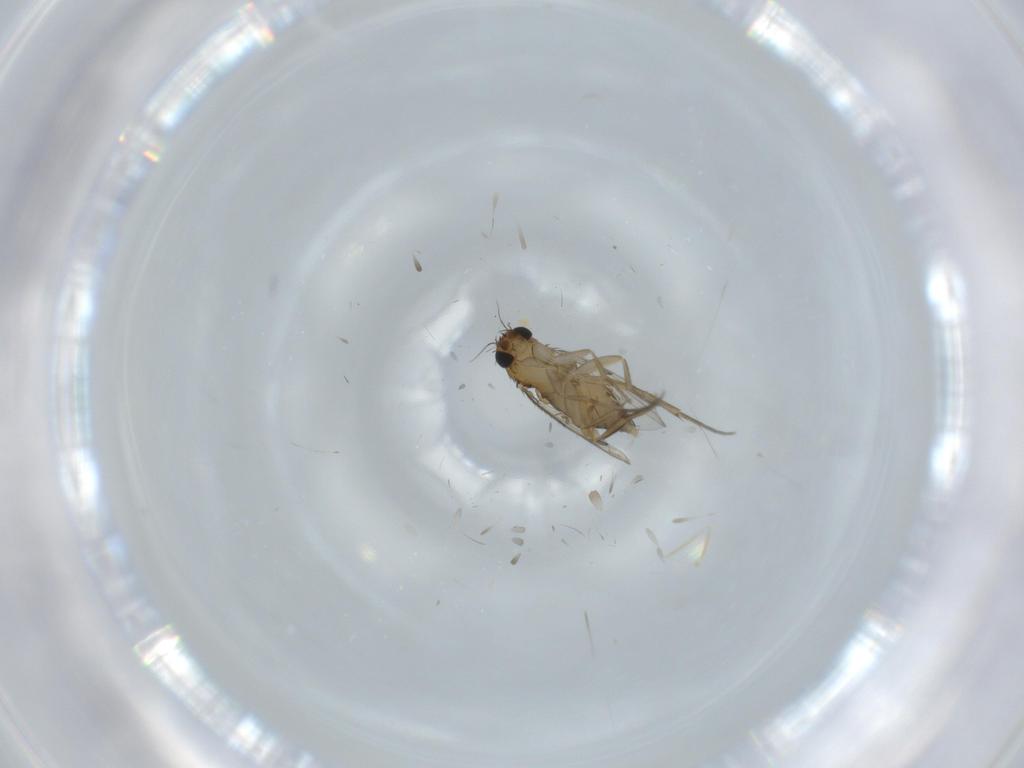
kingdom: Animalia
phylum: Arthropoda
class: Insecta
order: Diptera
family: Phoridae
